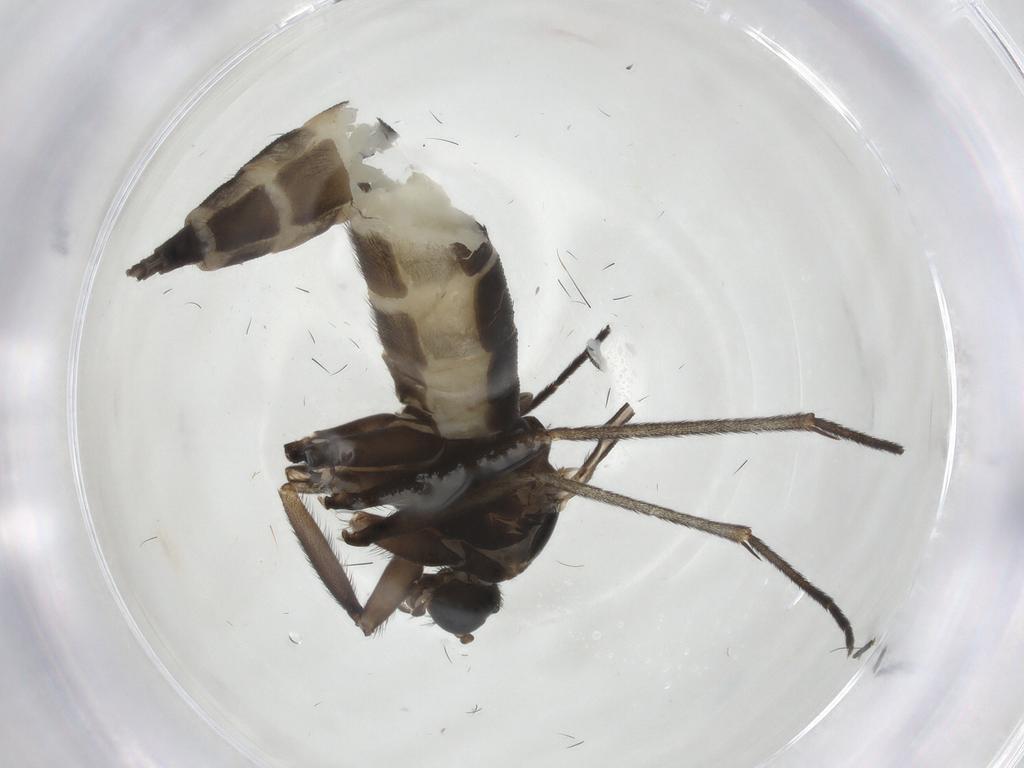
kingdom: Animalia
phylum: Arthropoda
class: Insecta
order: Diptera
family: Sciaridae
